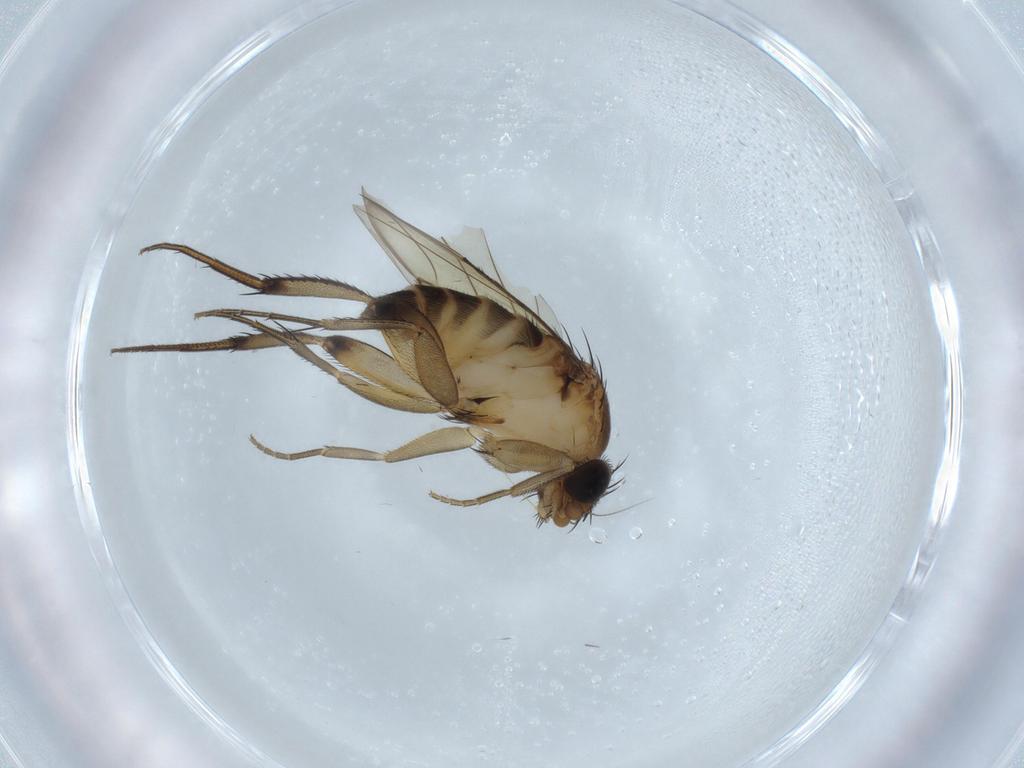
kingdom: Animalia
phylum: Arthropoda
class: Insecta
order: Diptera
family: Phoridae
